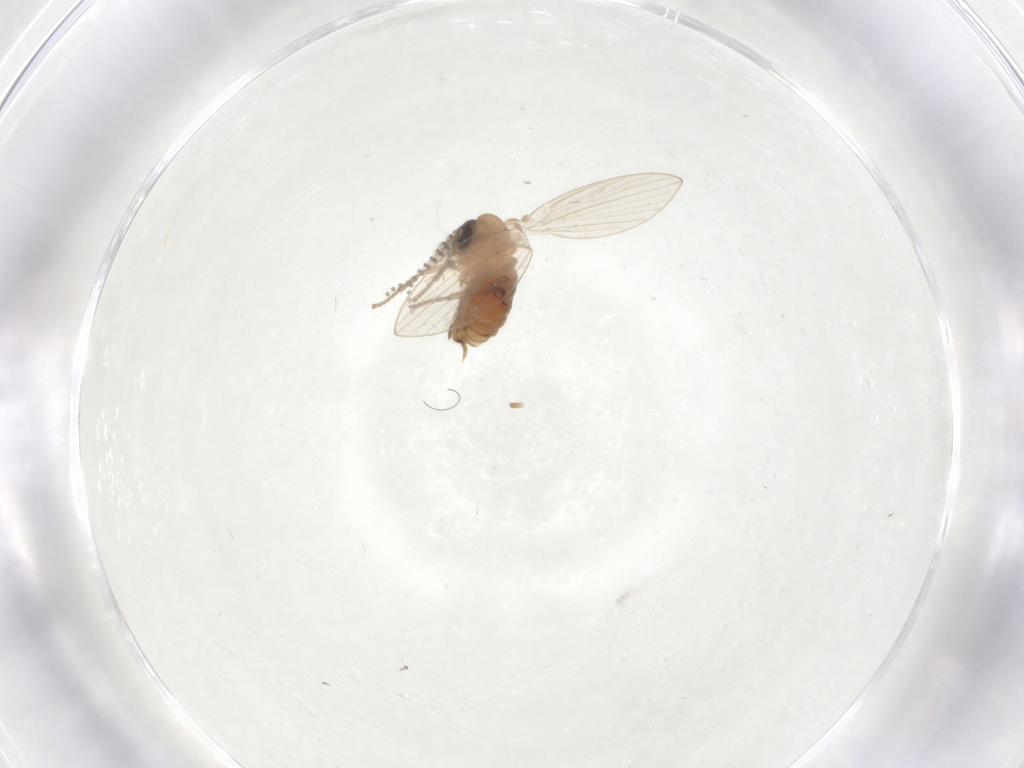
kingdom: Animalia
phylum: Arthropoda
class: Insecta
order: Diptera
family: Psychodidae
